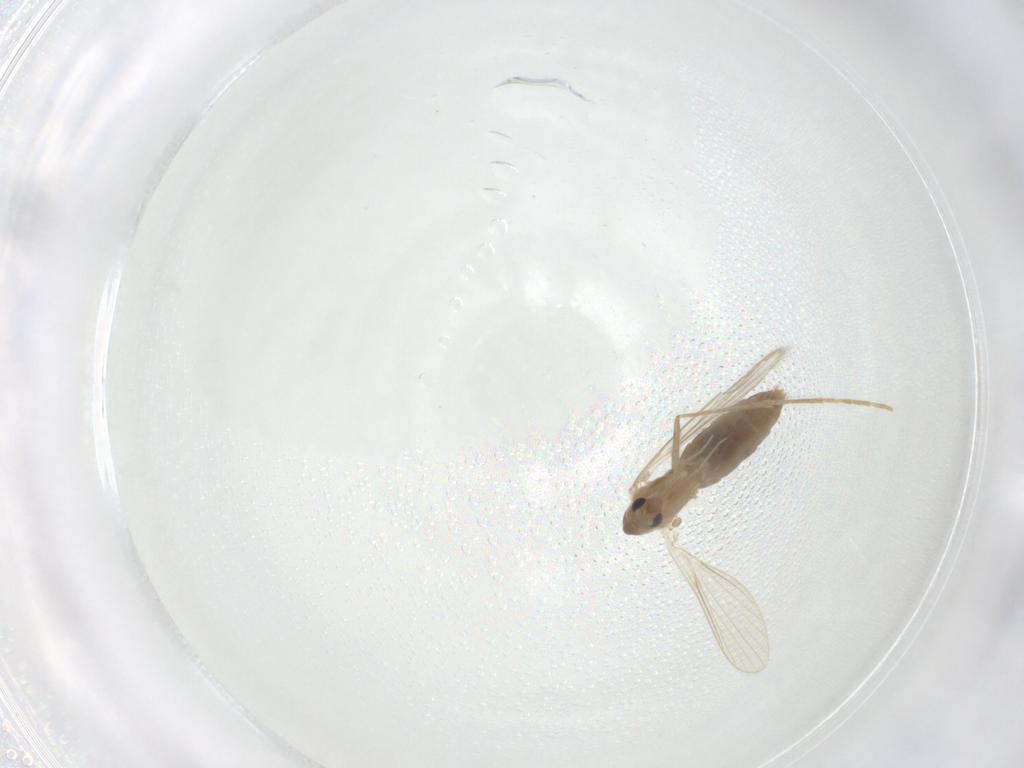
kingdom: Animalia
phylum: Arthropoda
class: Insecta
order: Diptera
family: Psychodidae
